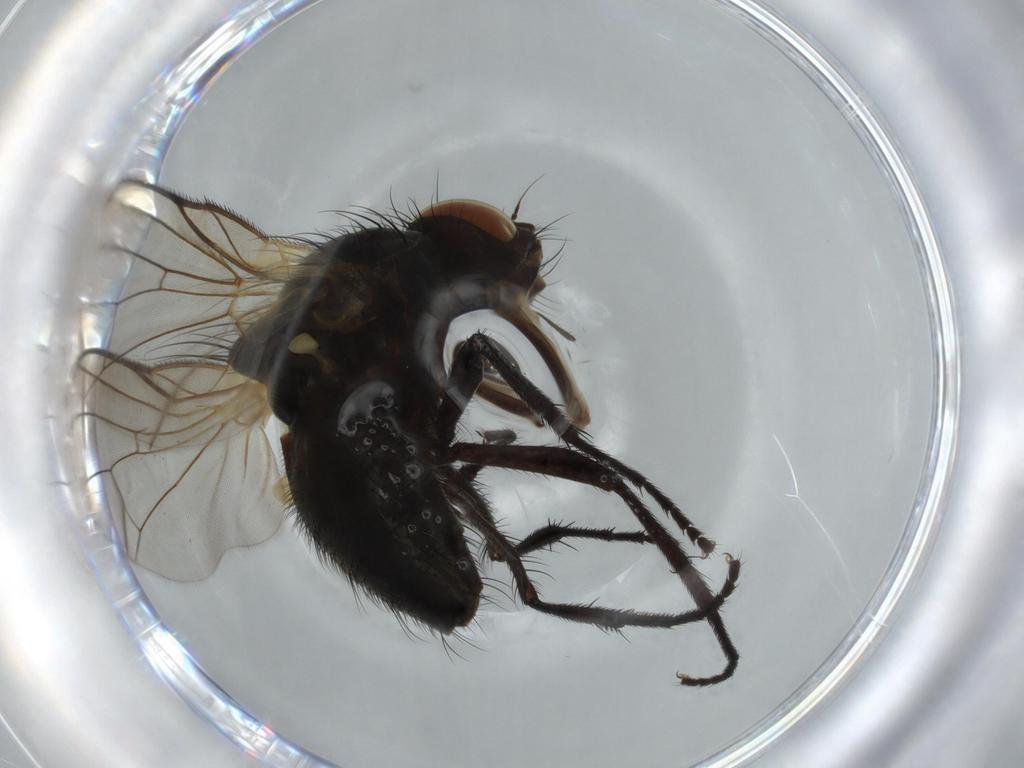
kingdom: Animalia
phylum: Arthropoda
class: Insecta
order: Diptera
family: Chironomidae
